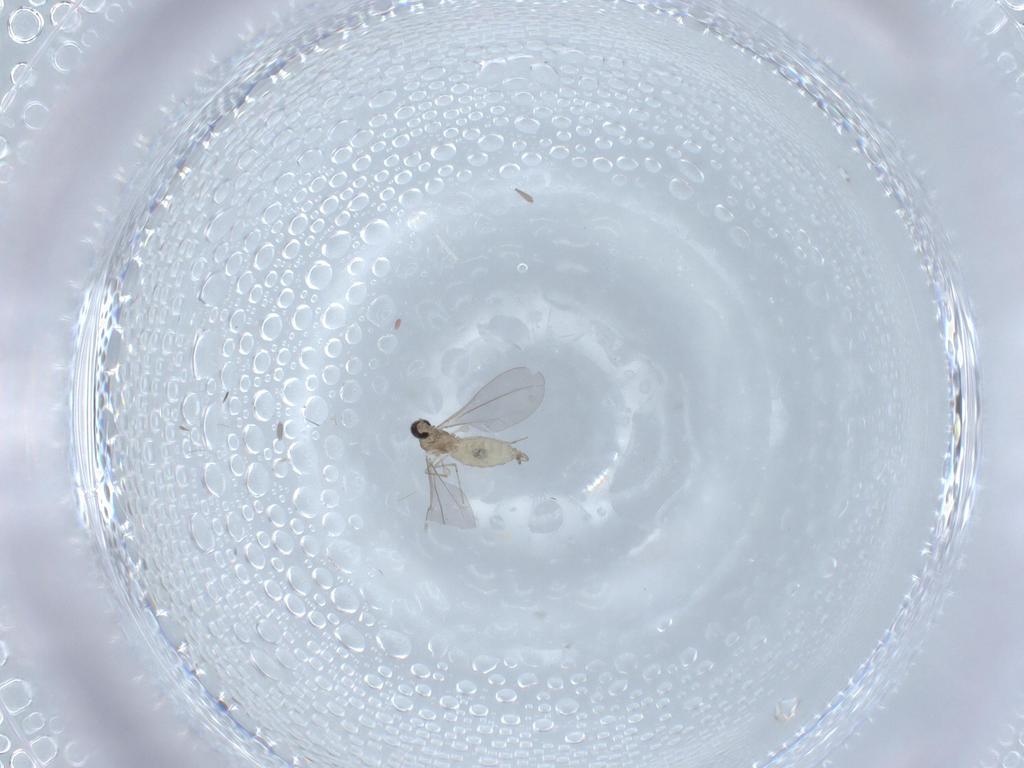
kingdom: Animalia
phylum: Arthropoda
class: Insecta
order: Diptera
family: Cecidomyiidae
